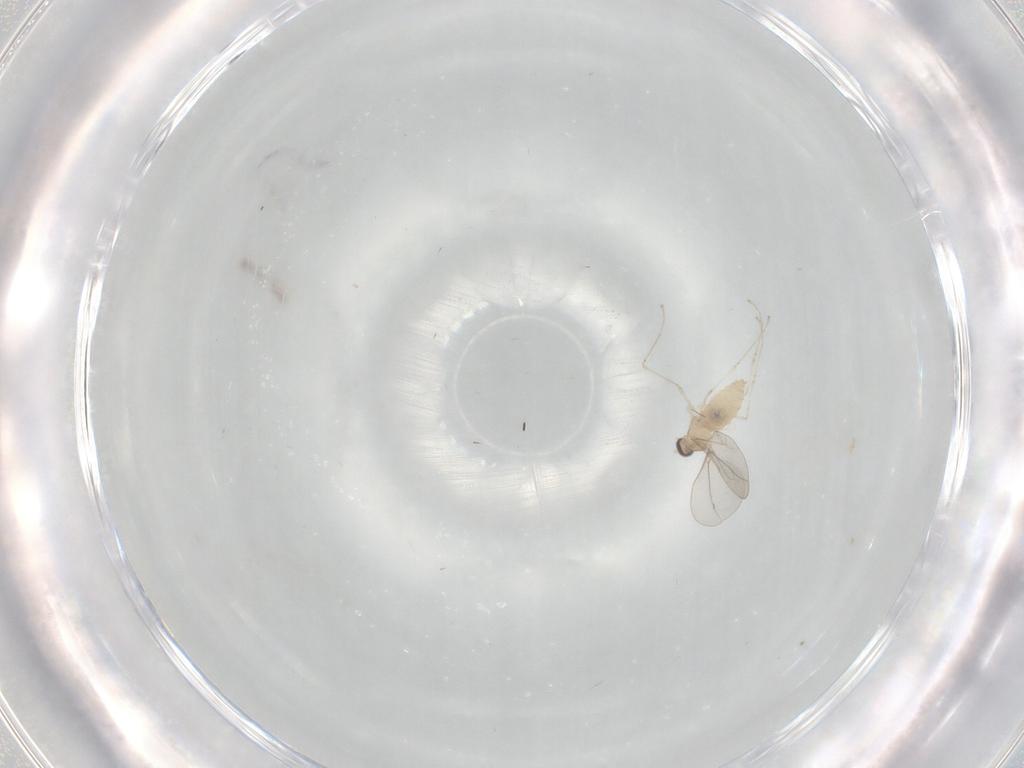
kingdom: Animalia
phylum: Arthropoda
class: Insecta
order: Diptera
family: Cecidomyiidae
